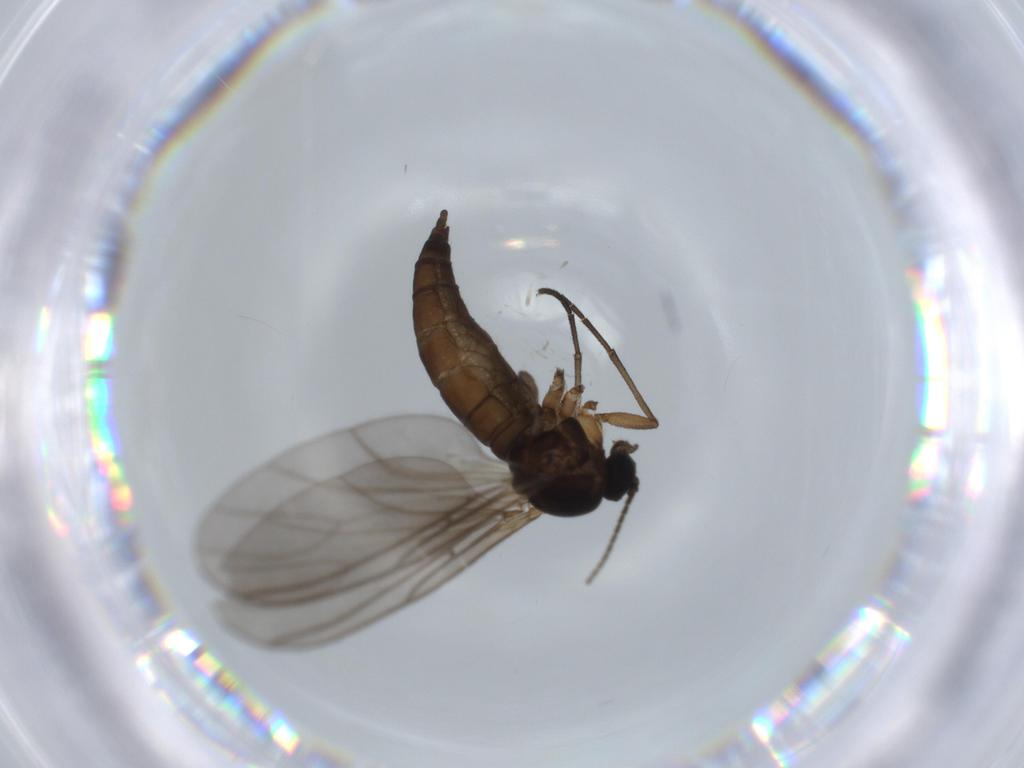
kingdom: Animalia
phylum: Arthropoda
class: Insecta
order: Diptera
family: Sciaridae
